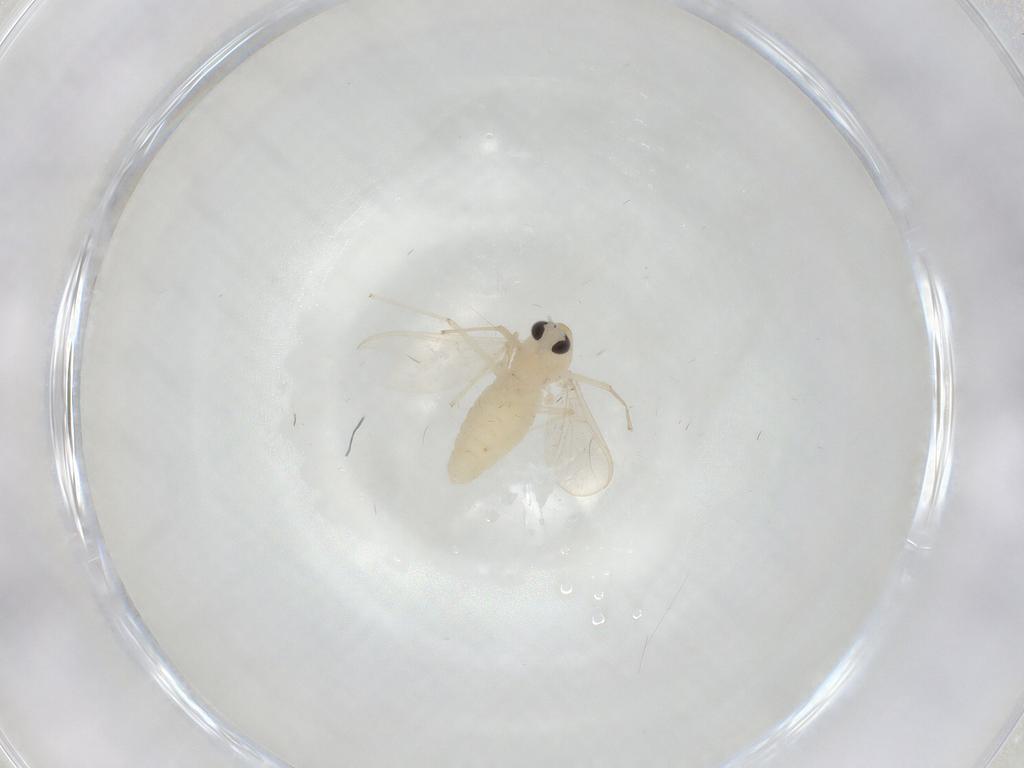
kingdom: Animalia
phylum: Arthropoda
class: Insecta
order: Diptera
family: Chironomidae
